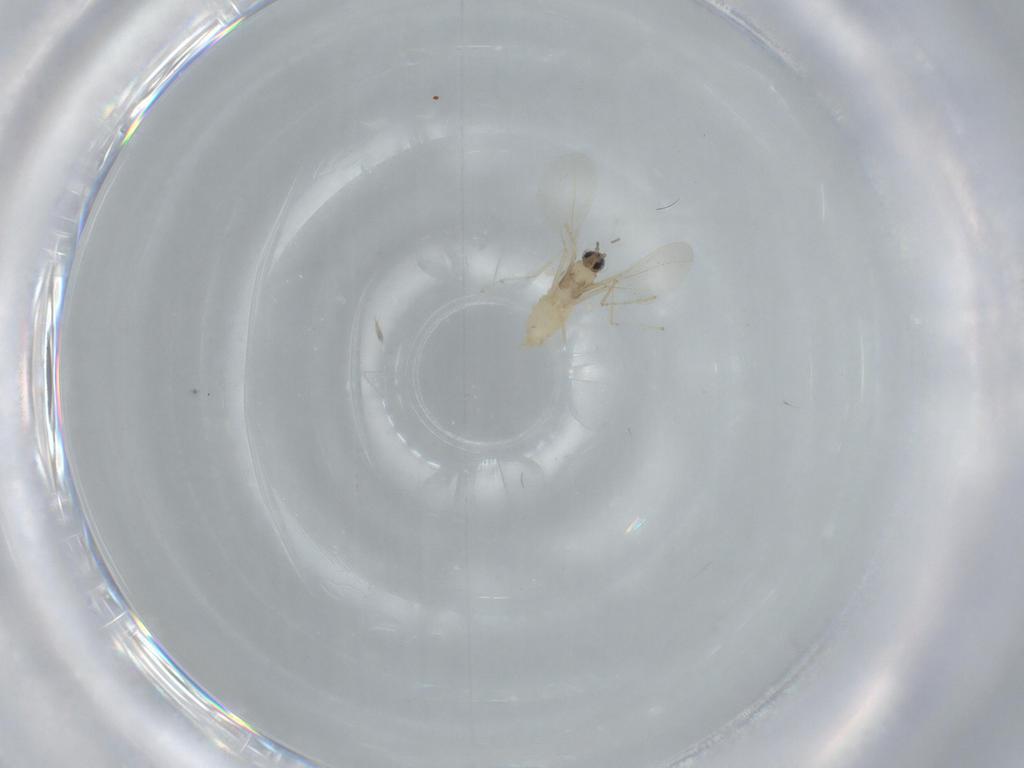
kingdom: Animalia
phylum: Arthropoda
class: Insecta
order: Diptera
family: Cecidomyiidae
